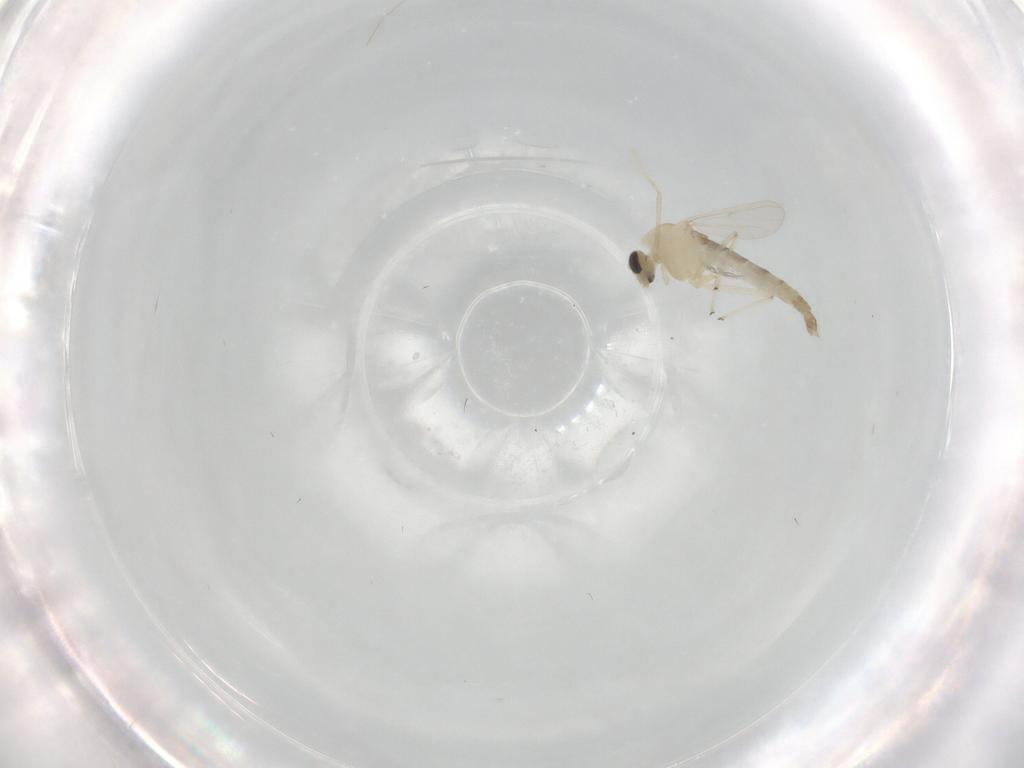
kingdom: Animalia
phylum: Arthropoda
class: Insecta
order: Diptera
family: Chironomidae
